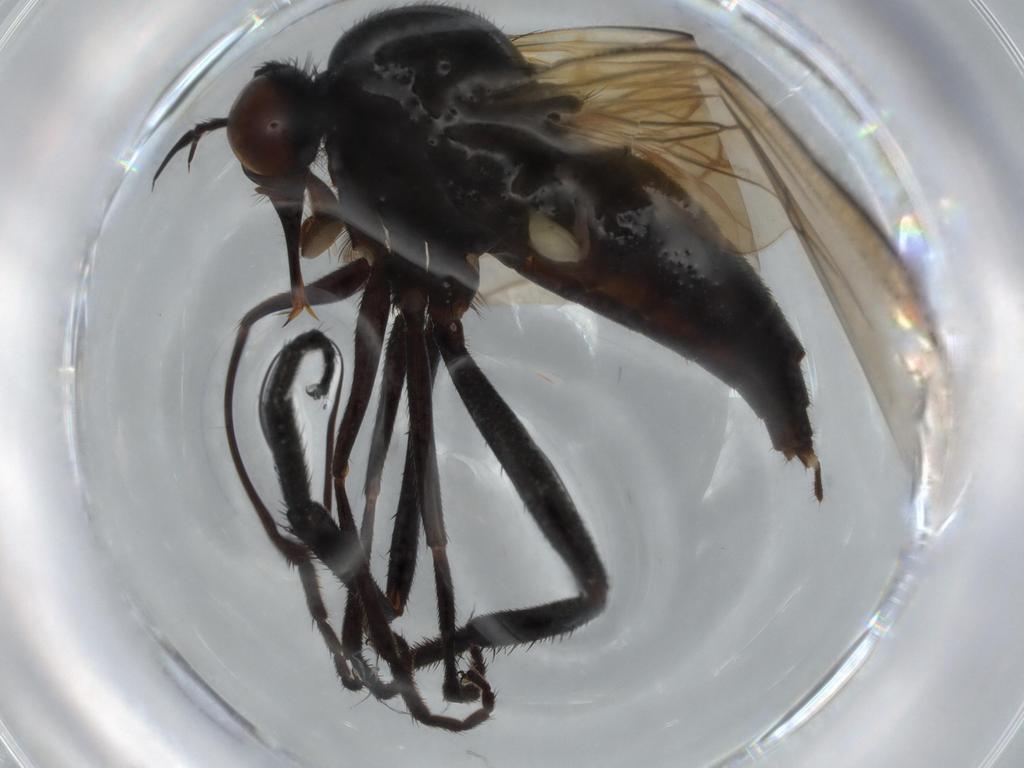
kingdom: Animalia
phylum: Arthropoda
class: Insecta
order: Diptera
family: Empididae
